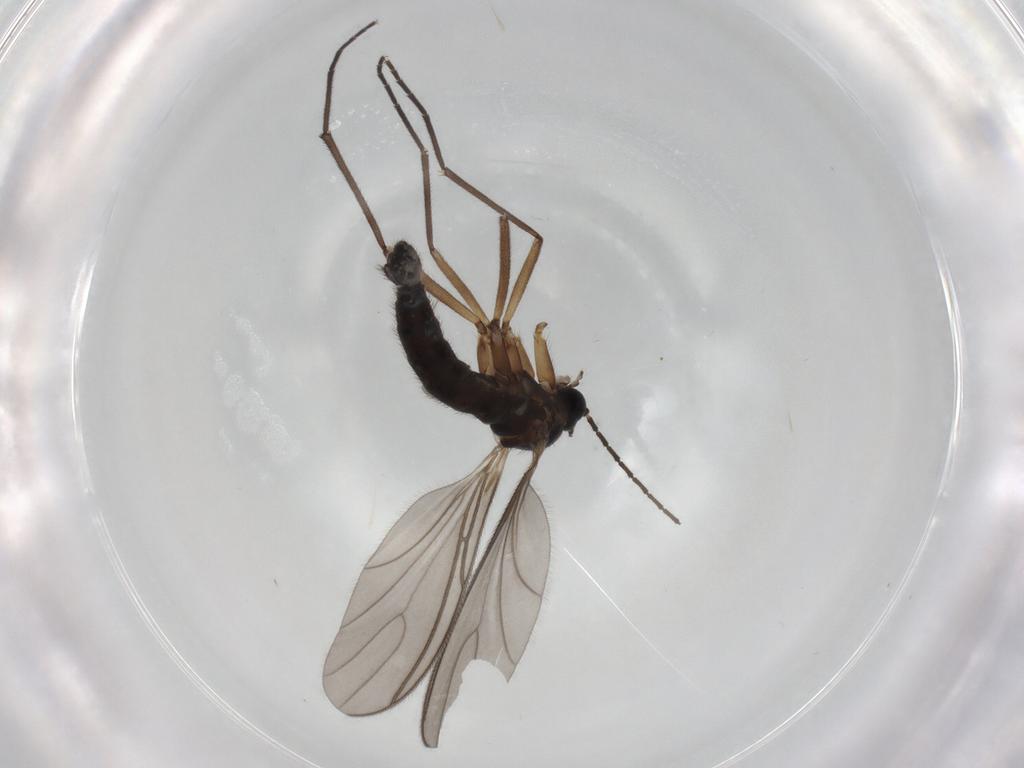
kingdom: Animalia
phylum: Arthropoda
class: Insecta
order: Diptera
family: Sciaridae
